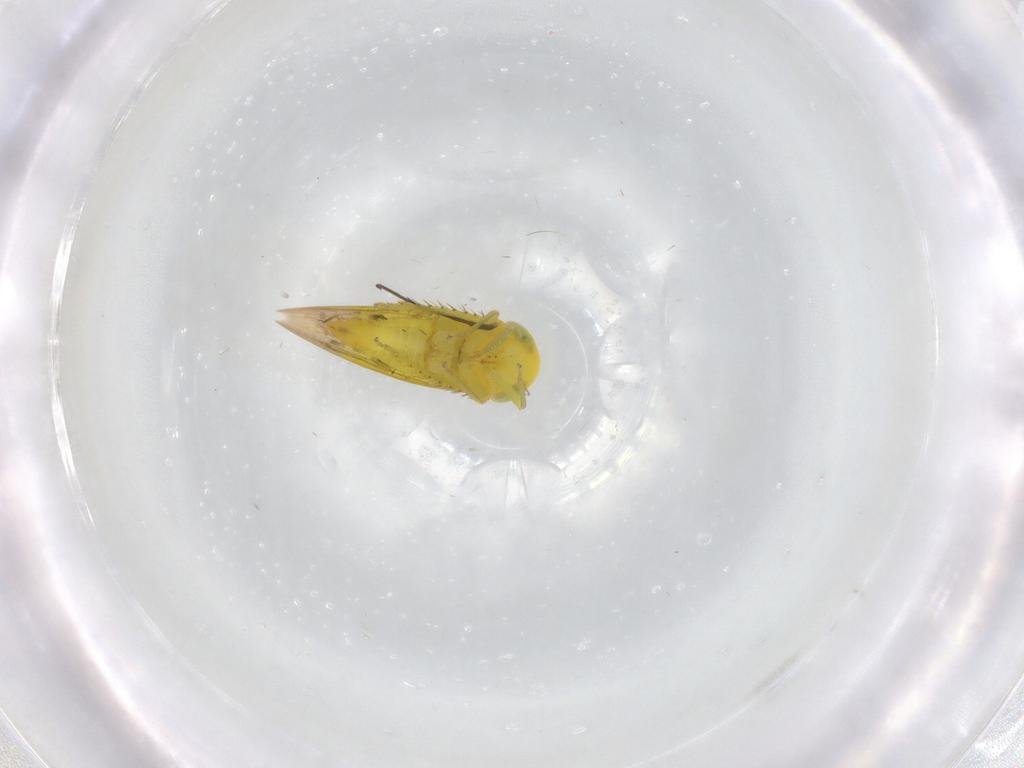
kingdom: Animalia
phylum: Arthropoda
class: Insecta
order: Hemiptera
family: Cicadellidae
